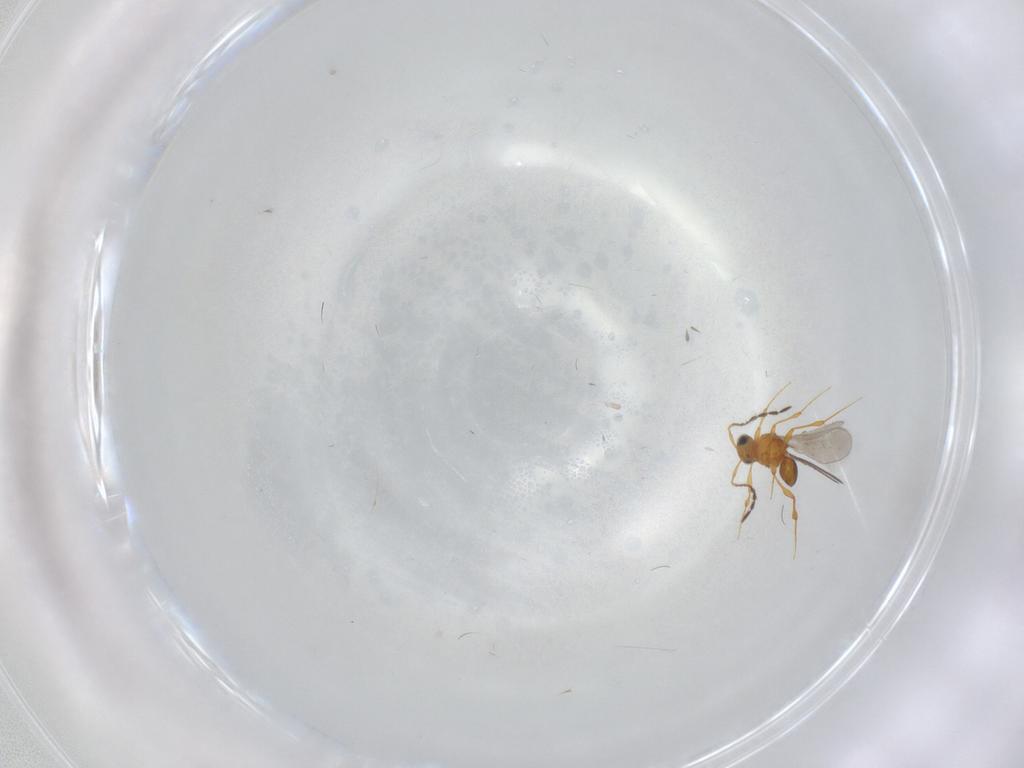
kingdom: Animalia
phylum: Arthropoda
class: Insecta
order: Hymenoptera
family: Platygastridae
